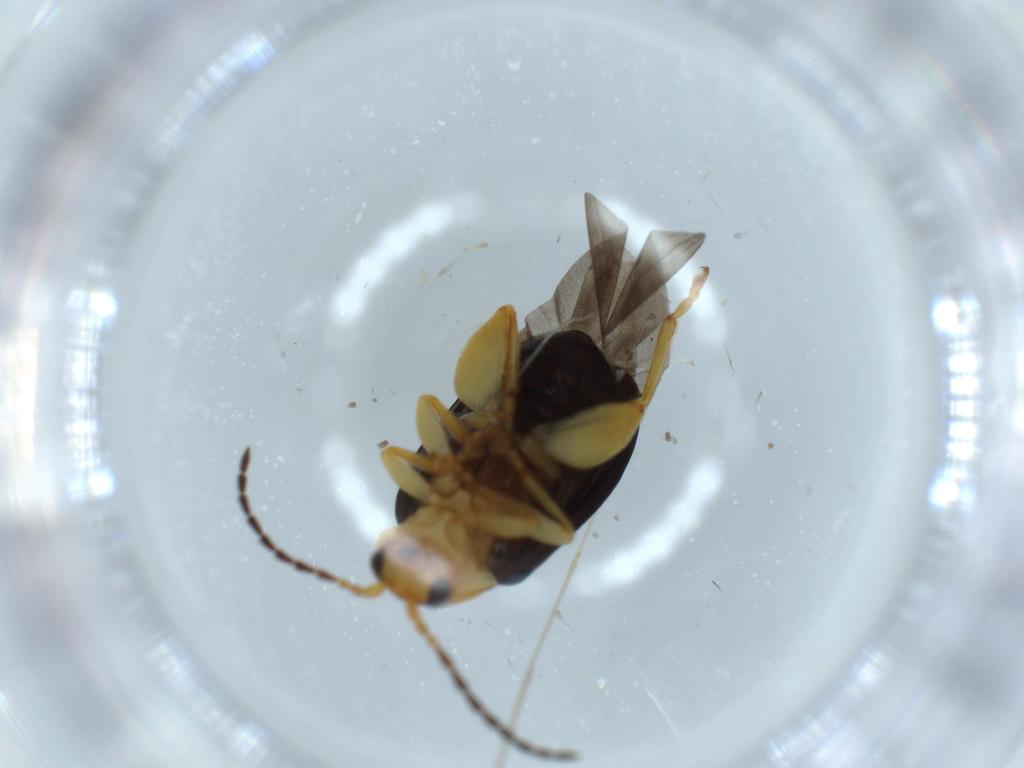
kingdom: Animalia
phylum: Arthropoda
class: Insecta
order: Coleoptera
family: Chrysomelidae
